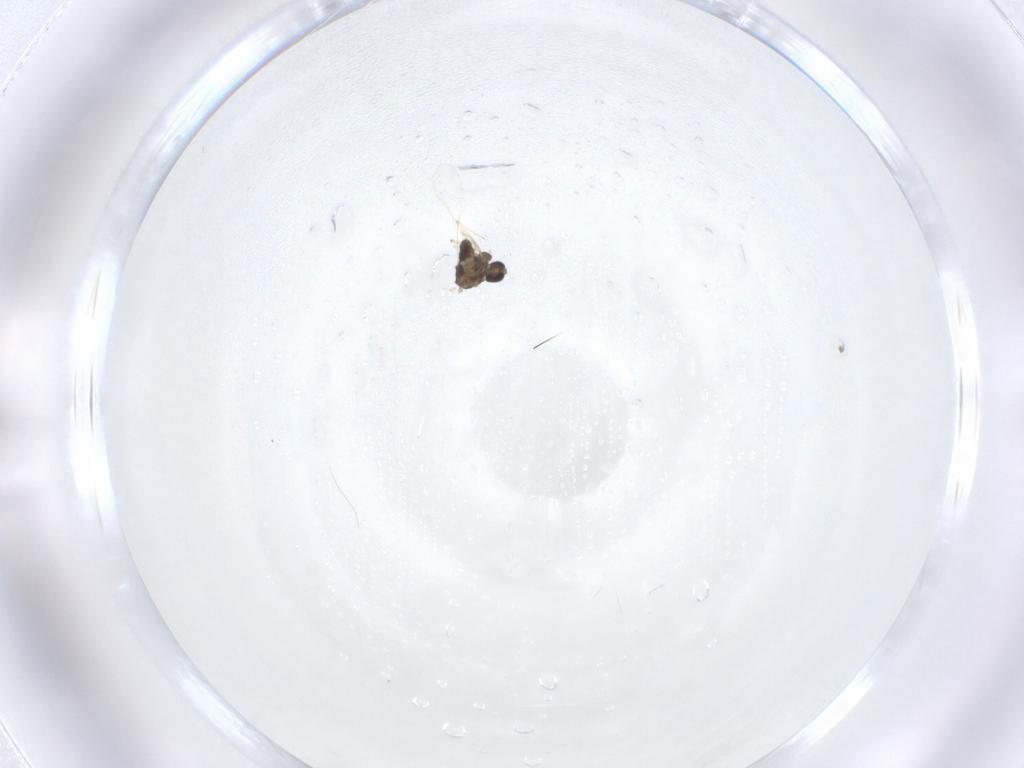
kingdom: Animalia
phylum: Arthropoda
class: Insecta
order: Diptera
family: Chironomidae
